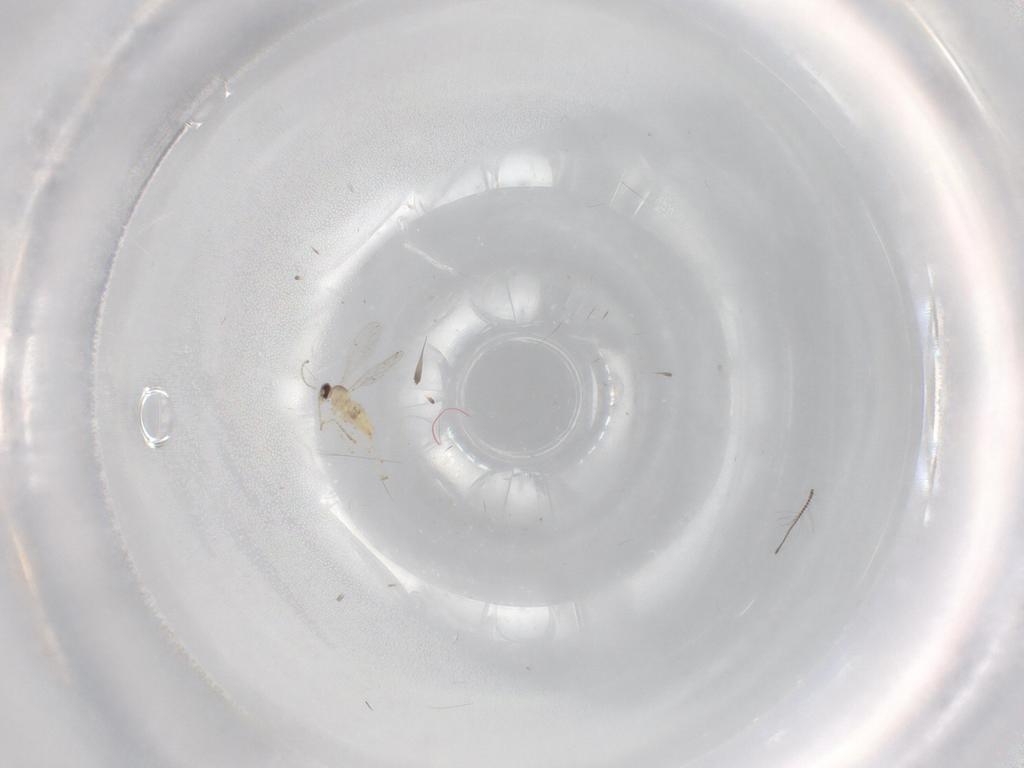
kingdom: Animalia
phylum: Arthropoda
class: Insecta
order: Diptera
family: Cecidomyiidae
